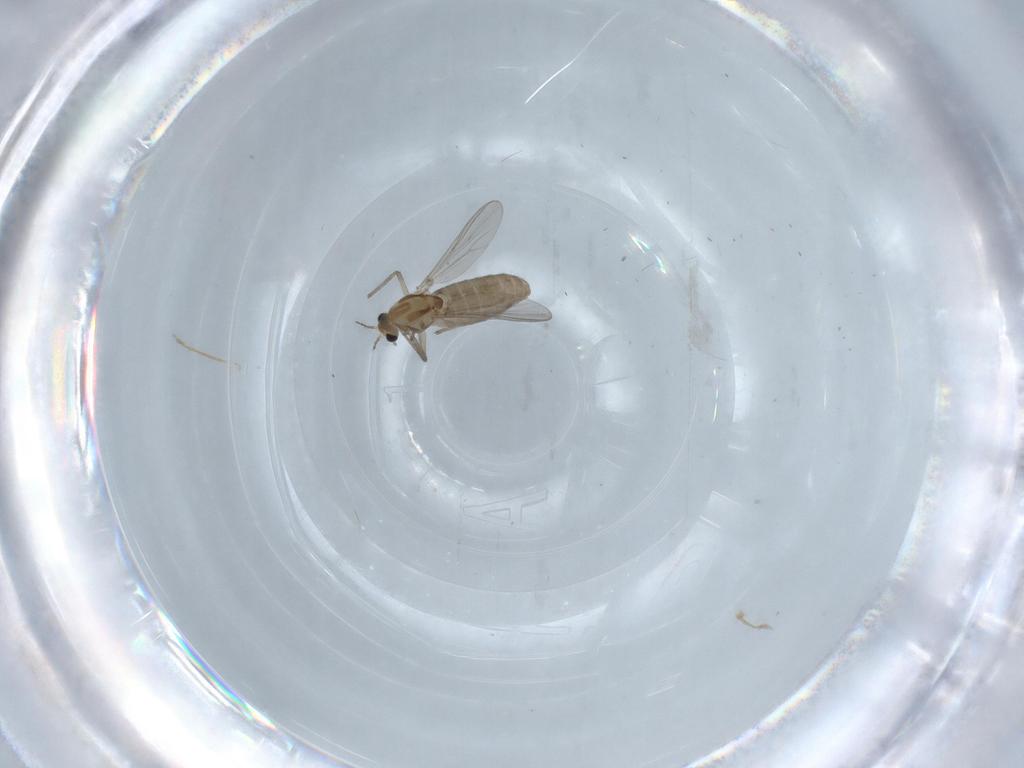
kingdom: Animalia
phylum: Arthropoda
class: Insecta
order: Diptera
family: Chironomidae
